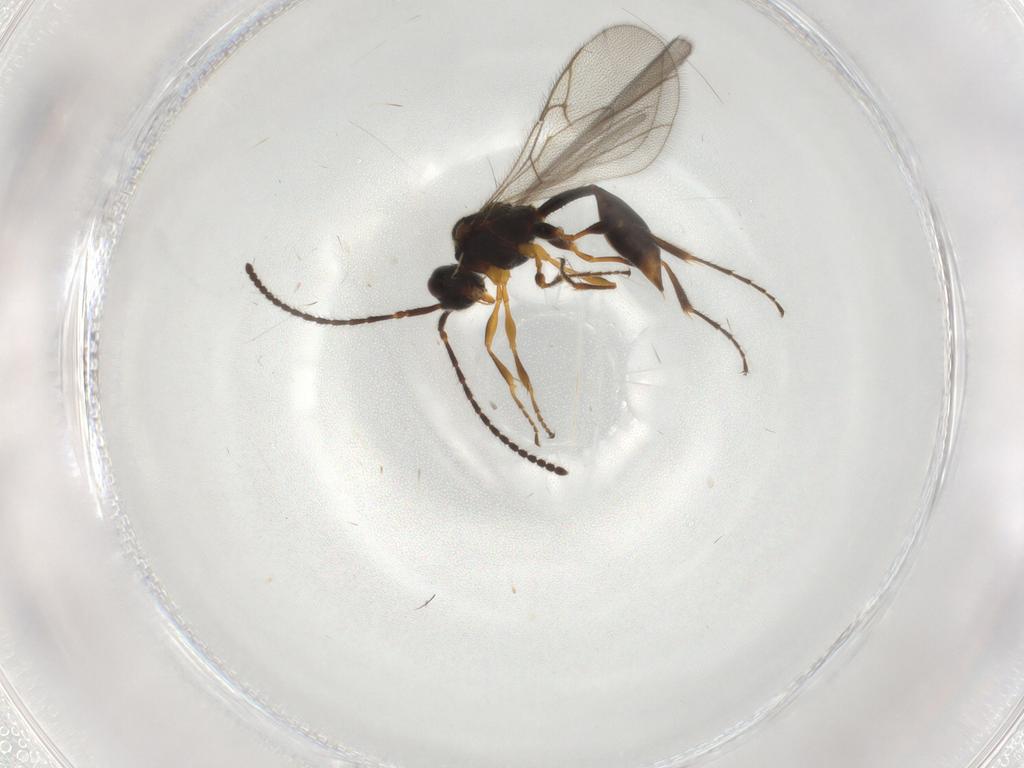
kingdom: Animalia
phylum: Arthropoda
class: Insecta
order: Hymenoptera
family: Diapriidae
